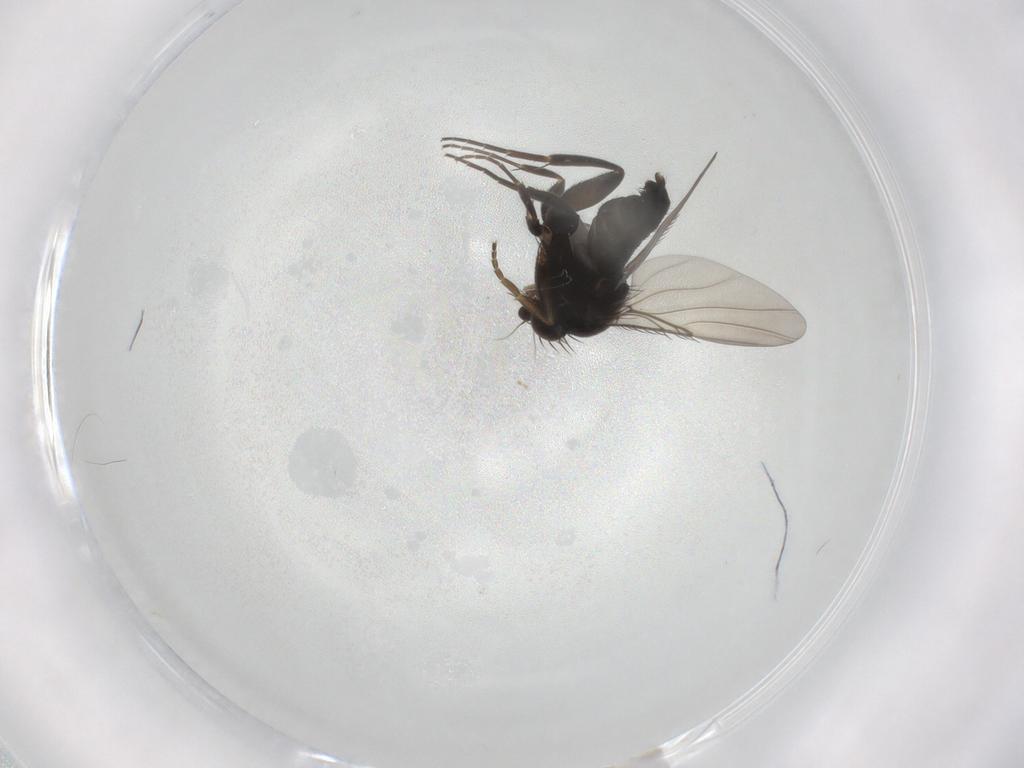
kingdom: Animalia
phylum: Arthropoda
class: Insecta
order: Diptera
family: Phoridae
